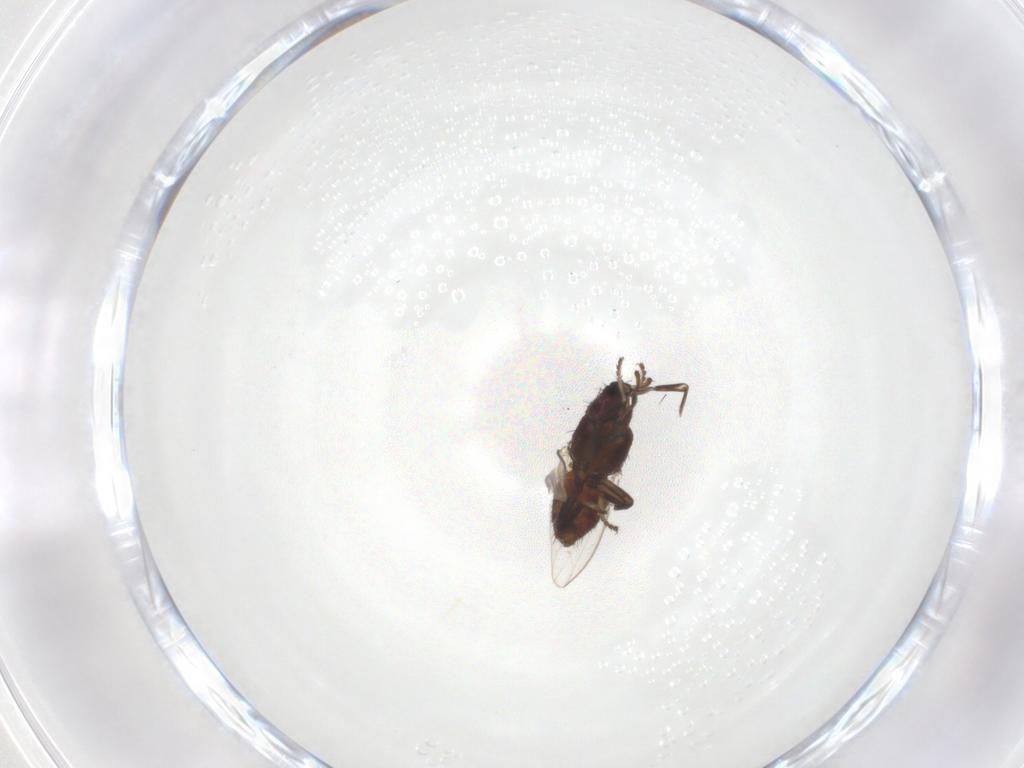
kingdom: Animalia
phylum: Arthropoda
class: Insecta
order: Diptera
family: Milichiidae
